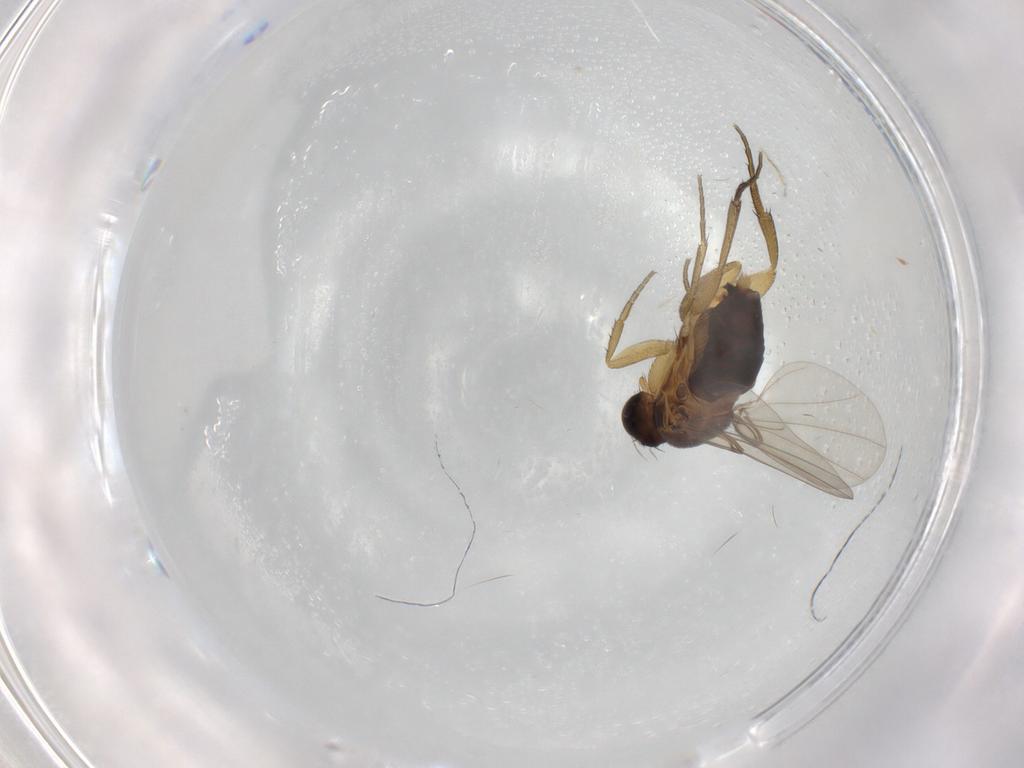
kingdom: Animalia
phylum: Arthropoda
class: Insecta
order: Diptera
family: Phoridae
